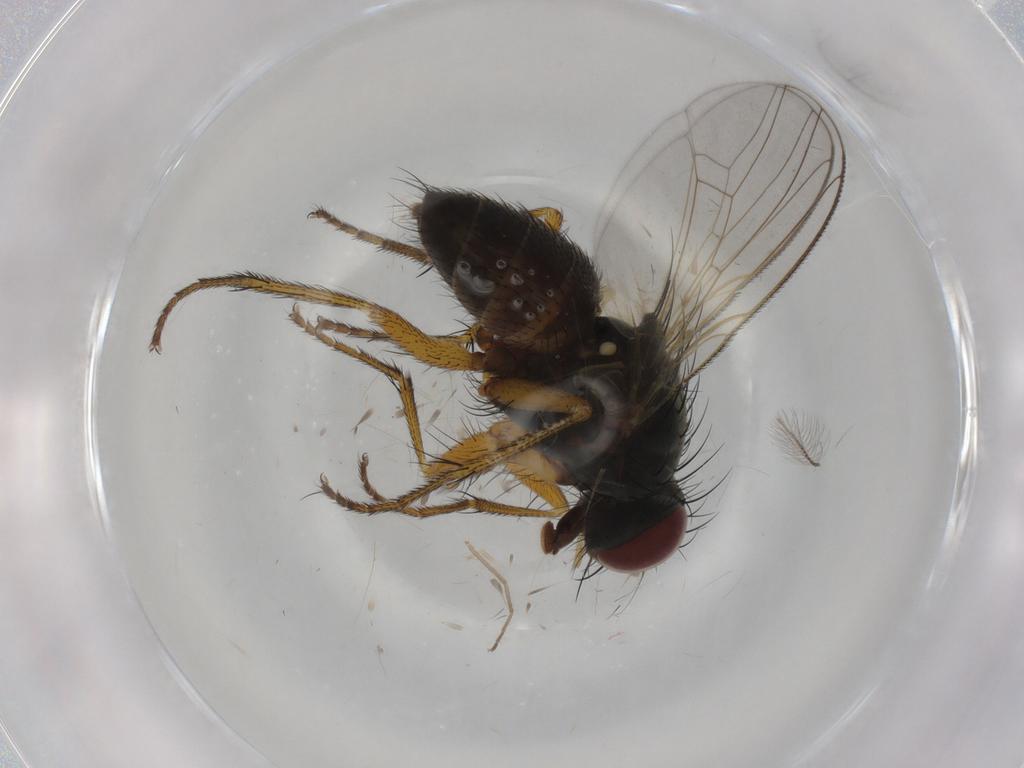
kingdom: Animalia
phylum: Arthropoda
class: Insecta
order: Diptera
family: Muscidae
